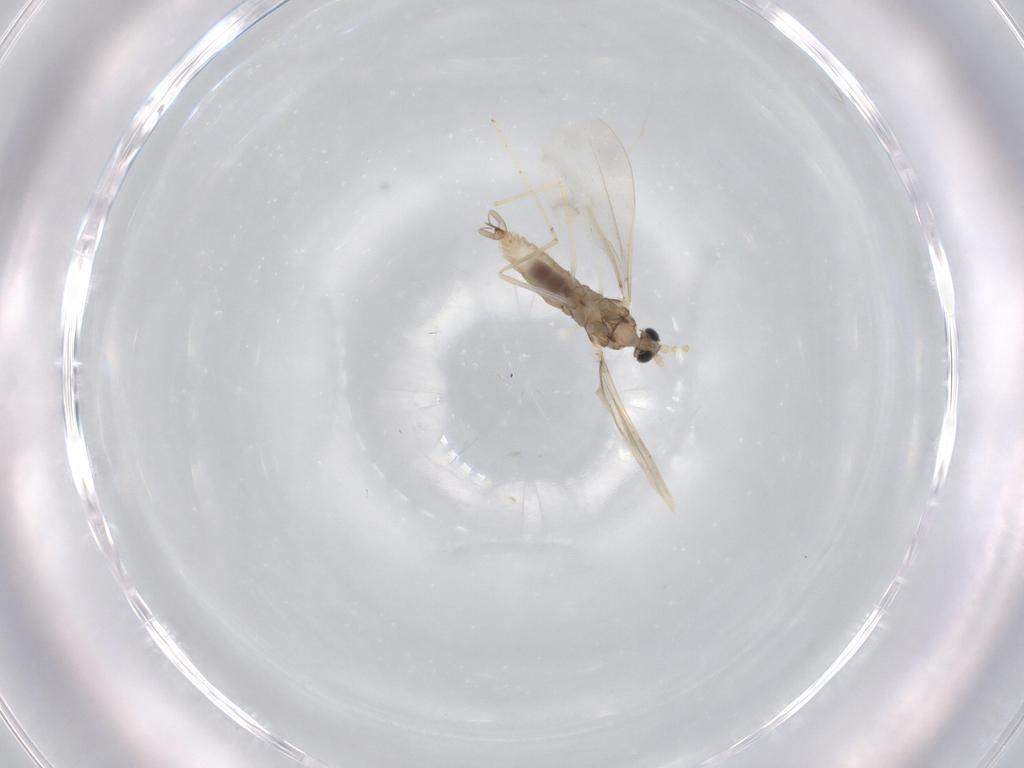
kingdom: Animalia
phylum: Arthropoda
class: Insecta
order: Diptera
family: Cecidomyiidae
